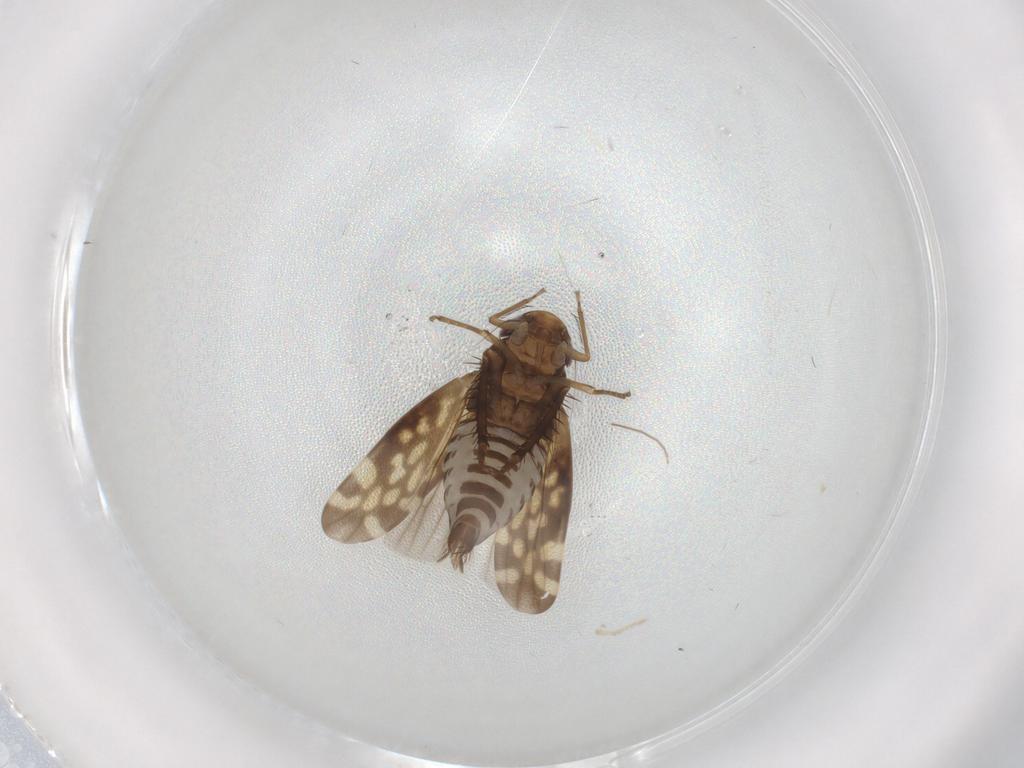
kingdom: Animalia
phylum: Arthropoda
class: Insecta
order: Hemiptera
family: Cicadellidae
